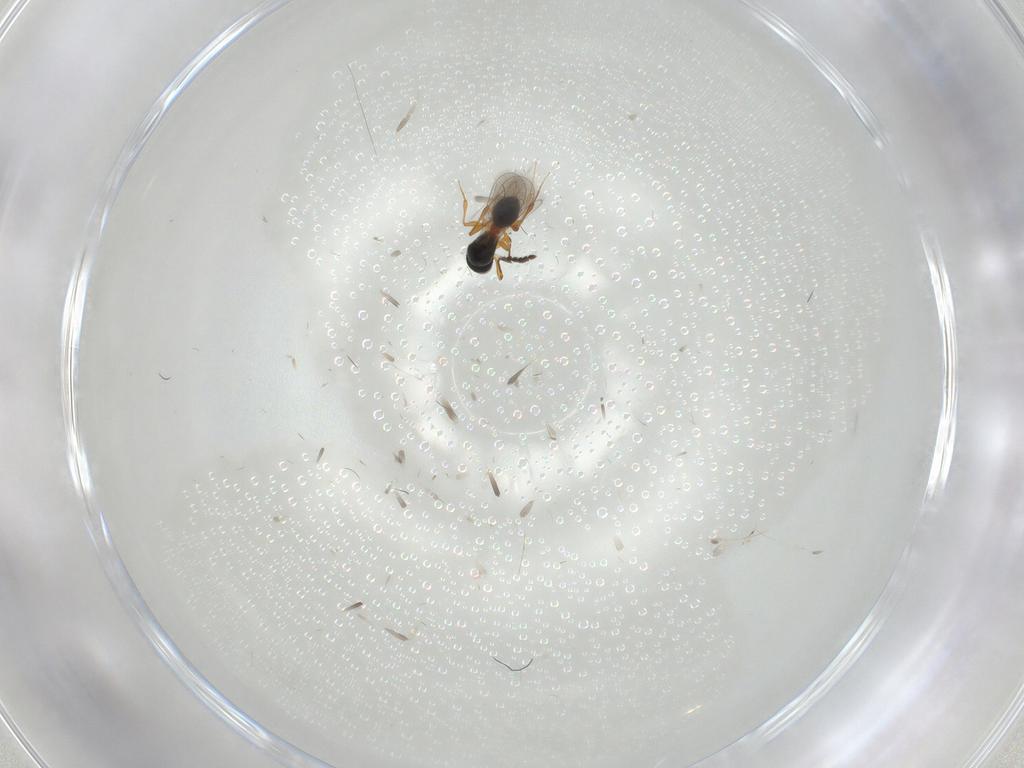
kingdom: Animalia
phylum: Arthropoda
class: Insecta
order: Hymenoptera
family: Platygastridae
